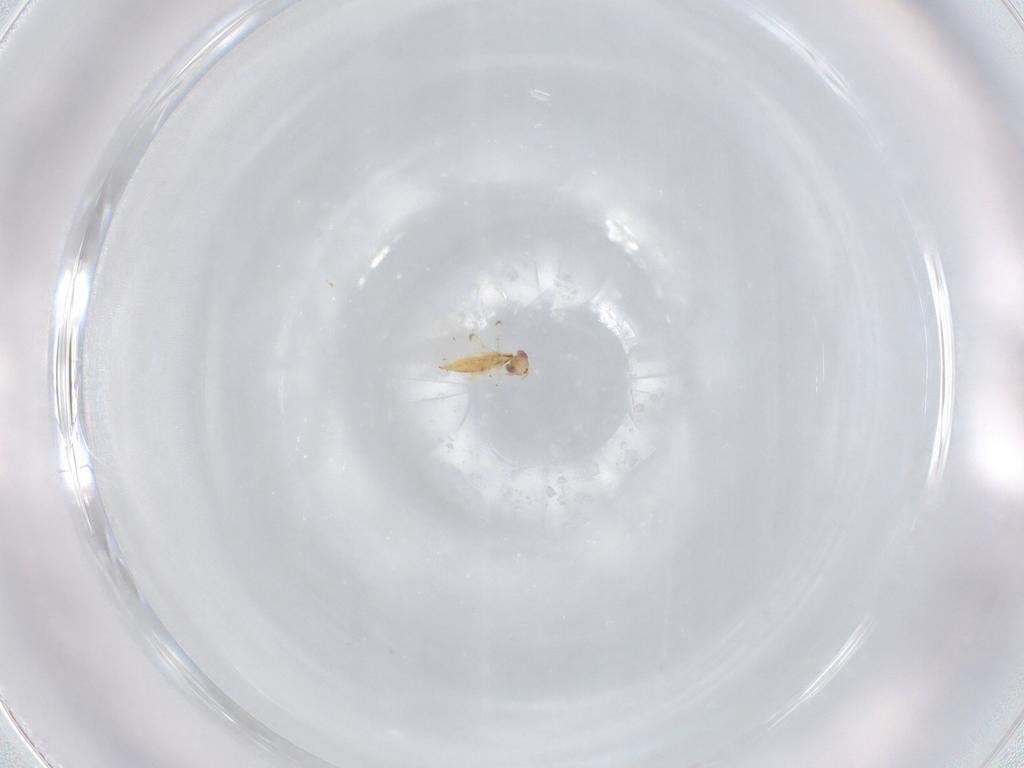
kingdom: Animalia
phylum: Arthropoda
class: Insecta
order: Hymenoptera
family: Trichogrammatidae
